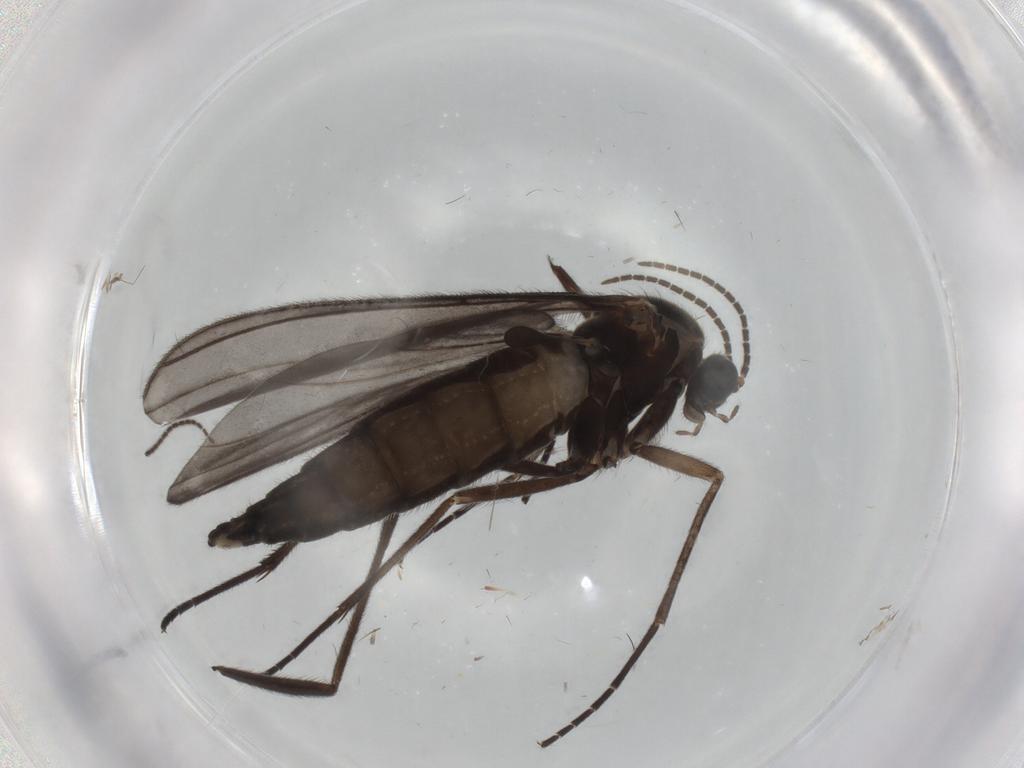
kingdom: Animalia
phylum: Arthropoda
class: Insecta
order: Diptera
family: Sciaridae
